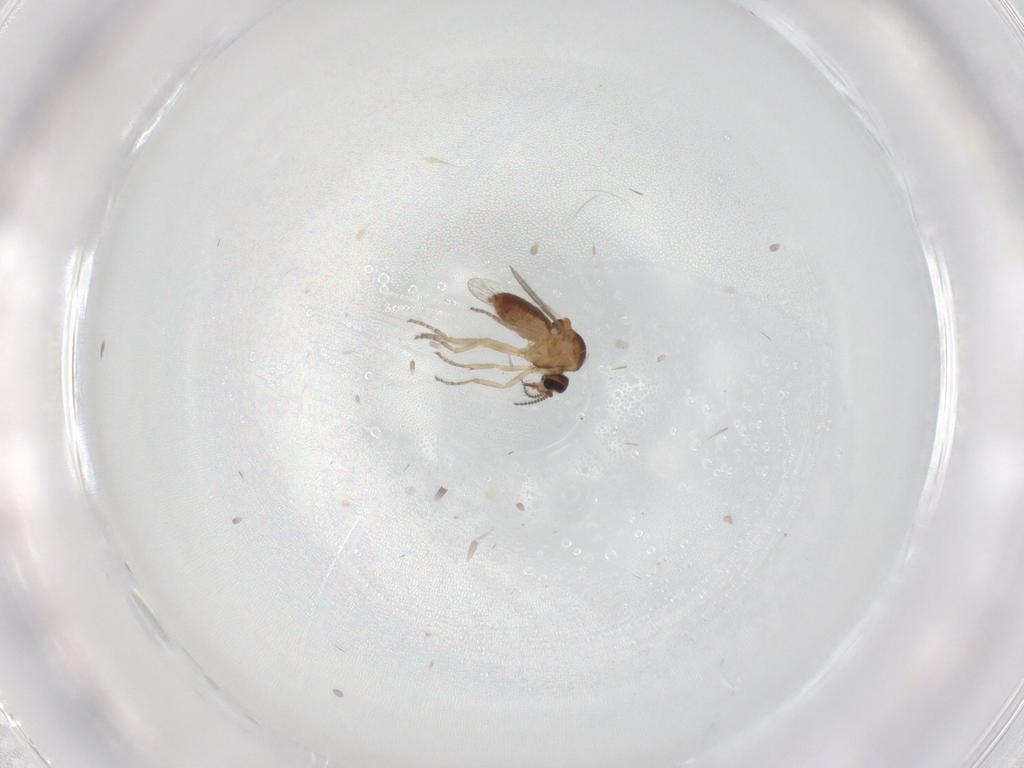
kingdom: Animalia
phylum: Arthropoda
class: Insecta
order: Diptera
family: Ceratopogonidae
